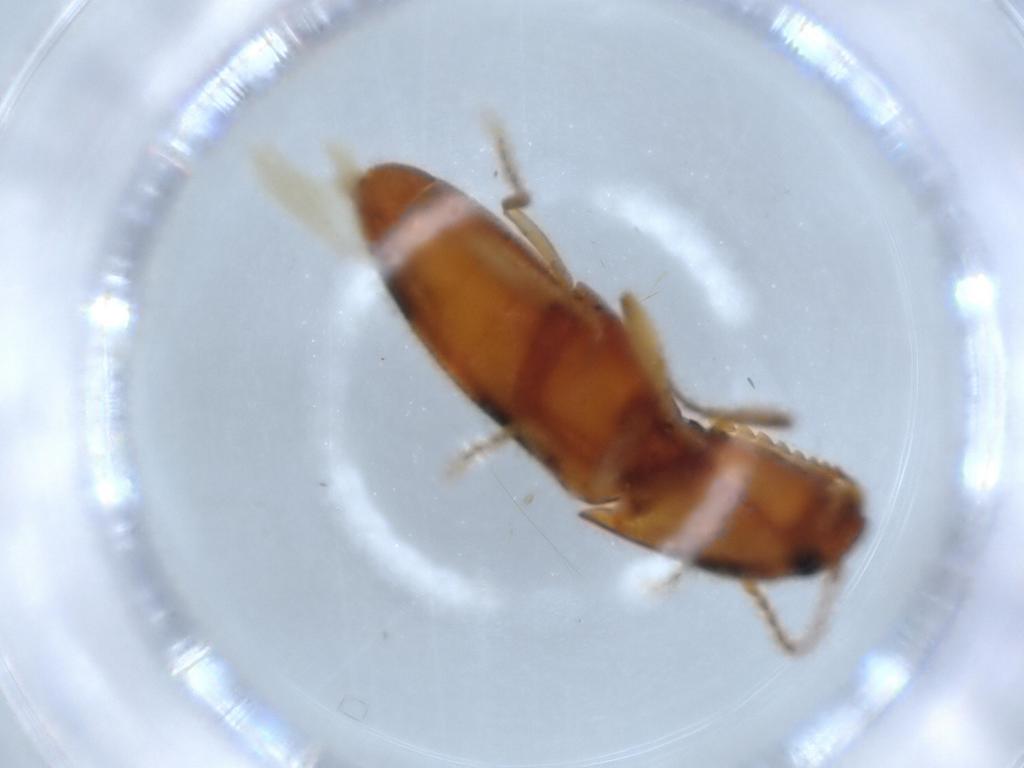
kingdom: Animalia
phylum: Arthropoda
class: Insecta
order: Coleoptera
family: Elateridae
